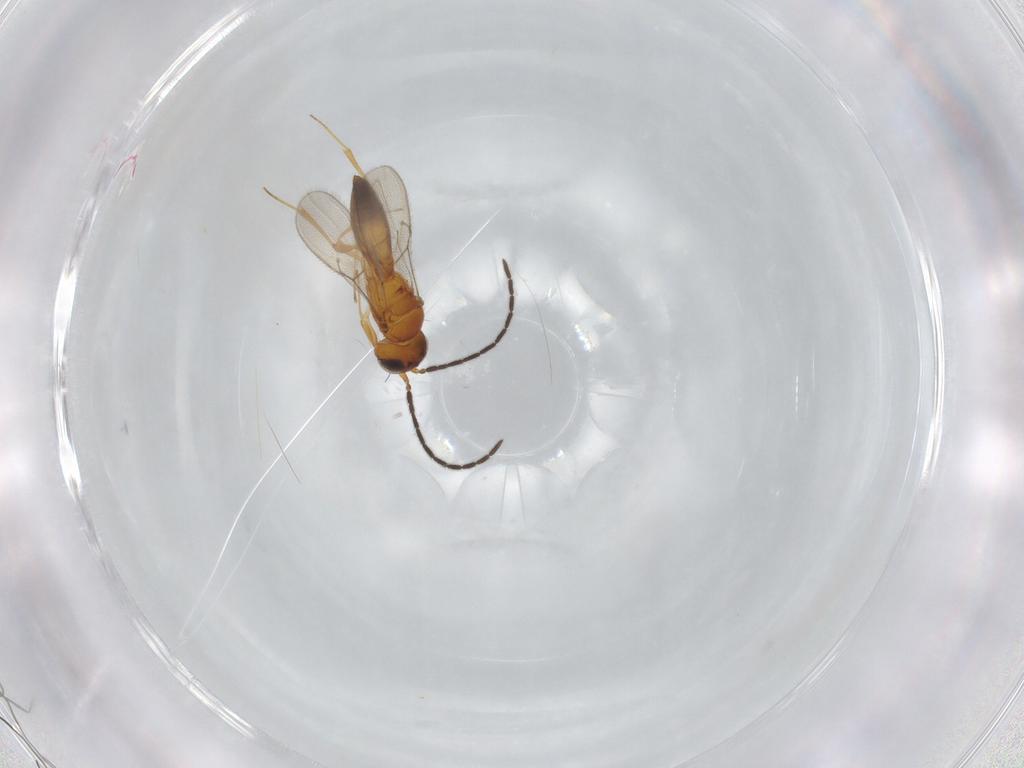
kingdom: Animalia
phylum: Arthropoda
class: Insecta
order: Hymenoptera
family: Scelionidae
